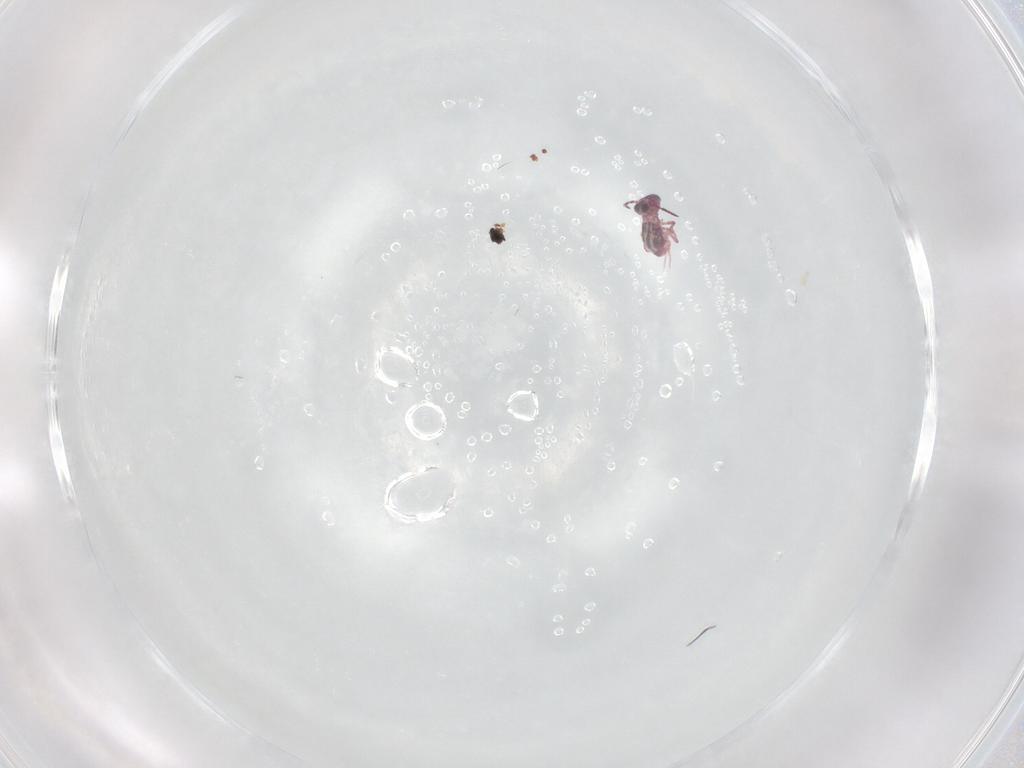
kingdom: Animalia
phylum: Arthropoda
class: Collembola
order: Symphypleona
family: Sminthurididae
